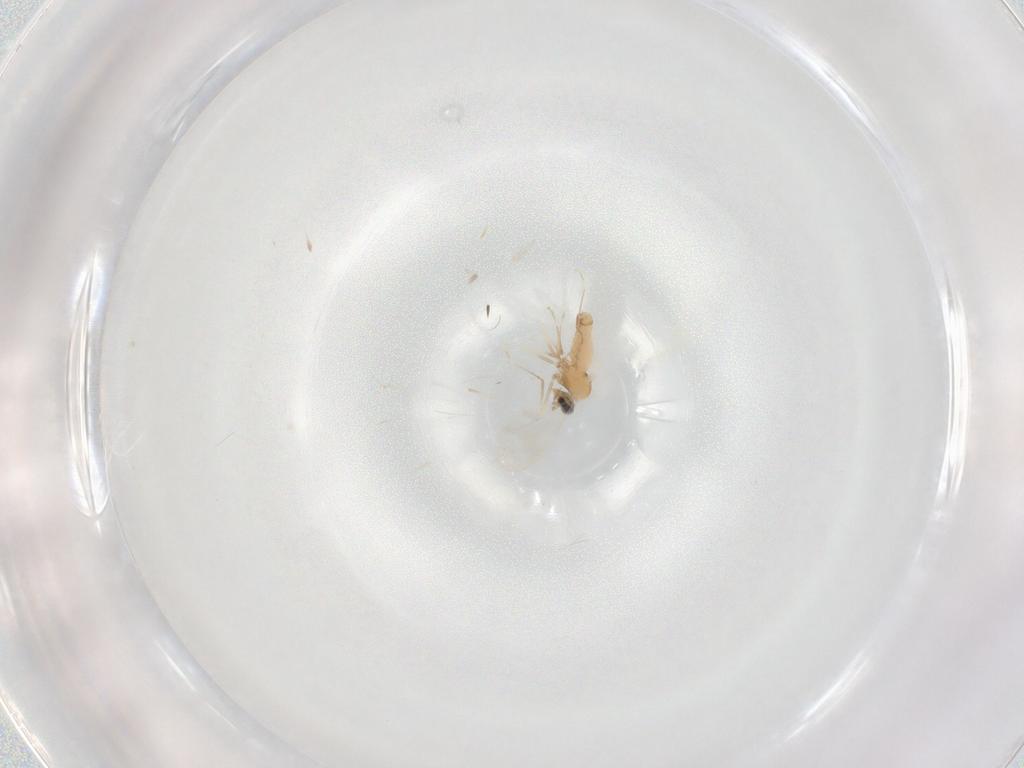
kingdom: Animalia
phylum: Arthropoda
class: Insecta
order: Diptera
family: Cecidomyiidae
